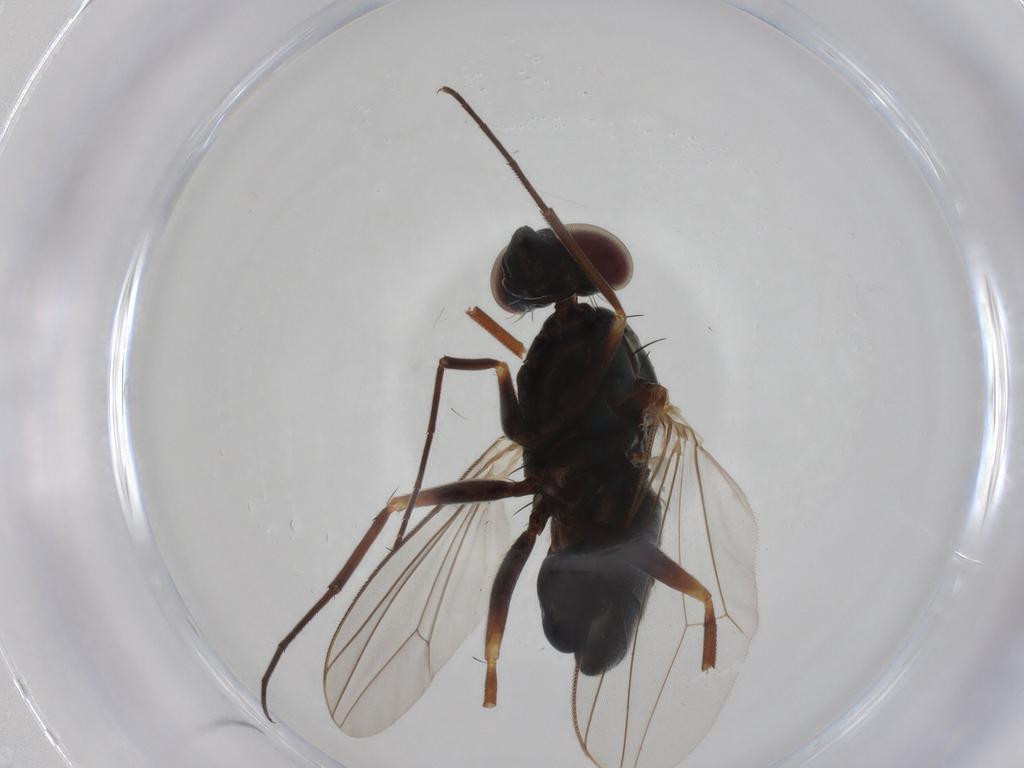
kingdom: Animalia
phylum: Arthropoda
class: Insecta
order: Diptera
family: Dolichopodidae
